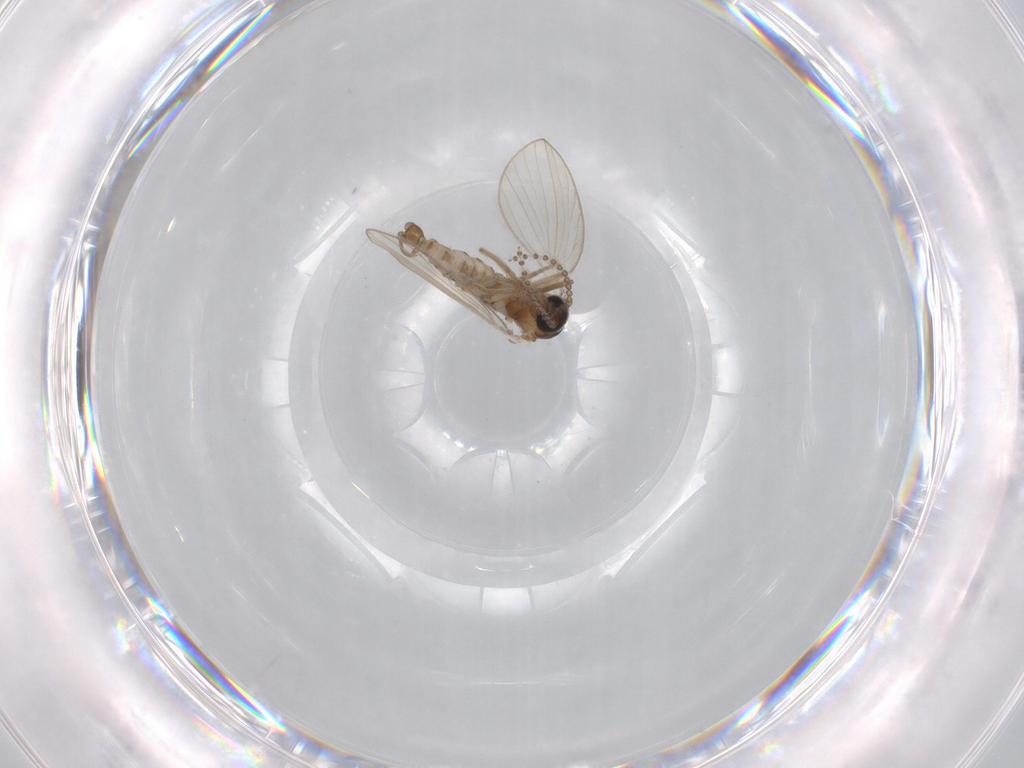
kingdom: Animalia
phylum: Arthropoda
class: Insecta
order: Diptera
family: Psychodidae
